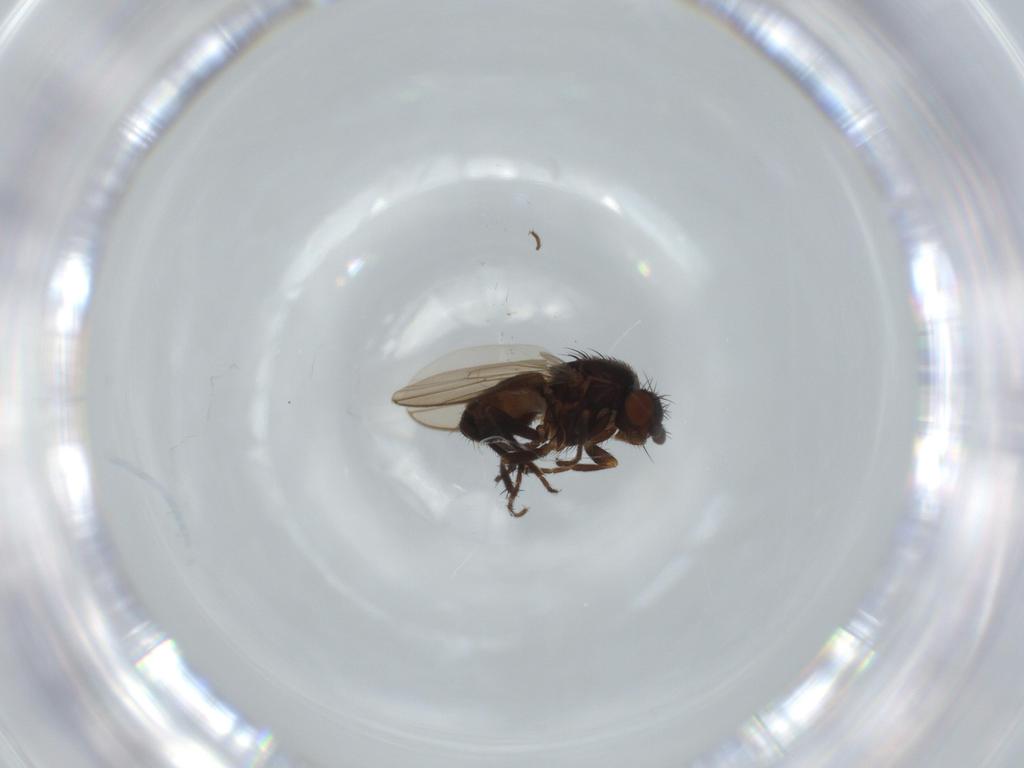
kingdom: Animalia
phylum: Arthropoda
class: Insecta
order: Diptera
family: Sphaeroceridae
